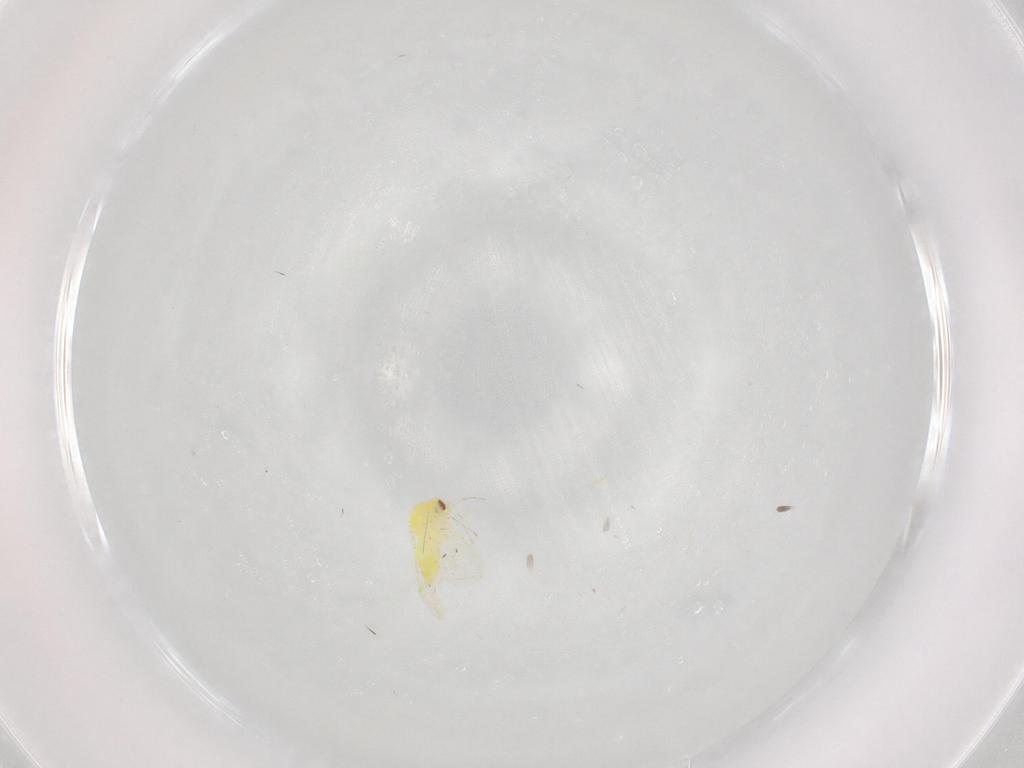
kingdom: Animalia
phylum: Arthropoda
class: Insecta
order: Hemiptera
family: Aleyrodidae
